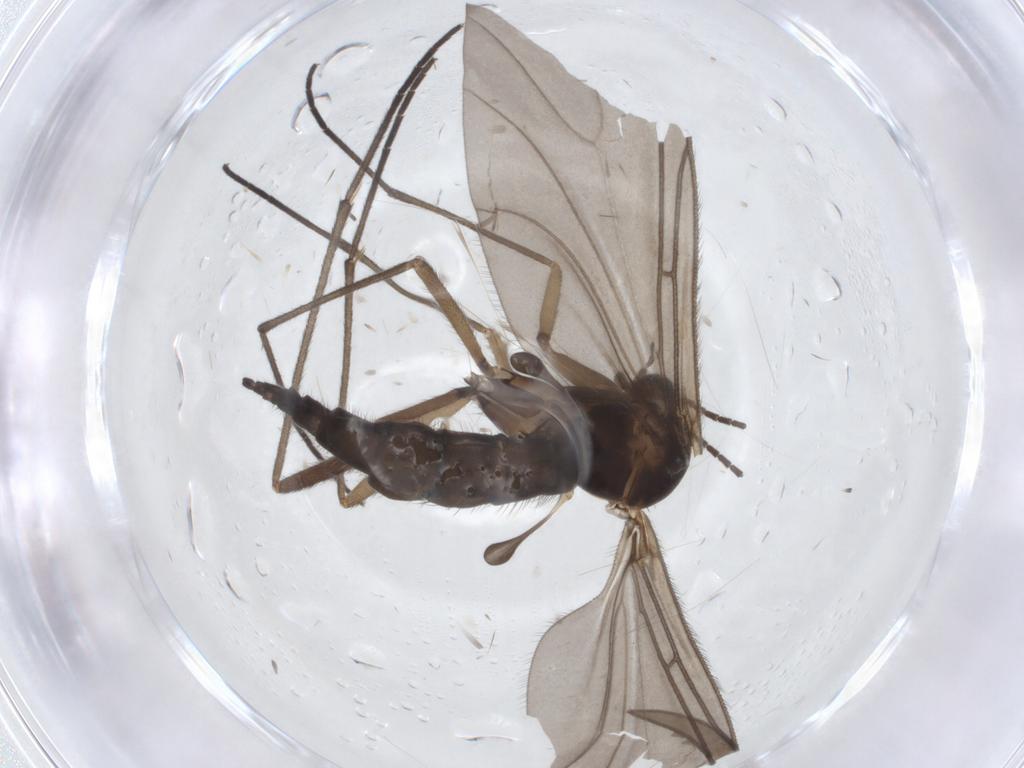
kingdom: Animalia
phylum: Arthropoda
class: Insecta
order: Diptera
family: Sciaridae
